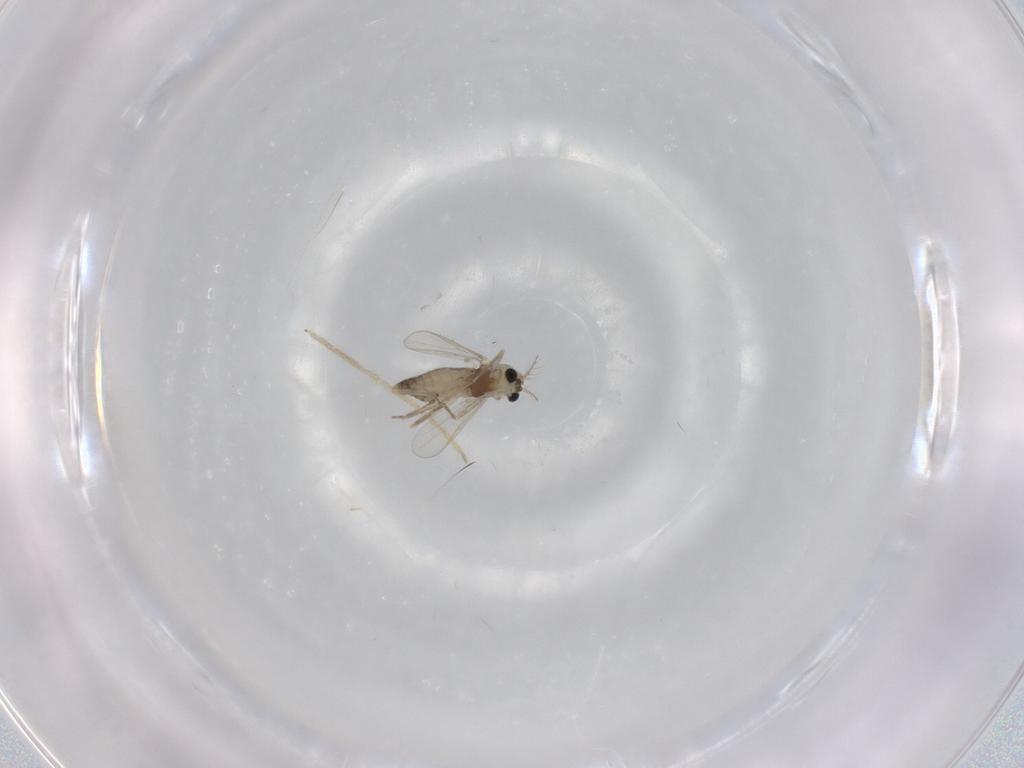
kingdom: Animalia
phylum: Arthropoda
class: Insecta
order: Diptera
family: Chironomidae
